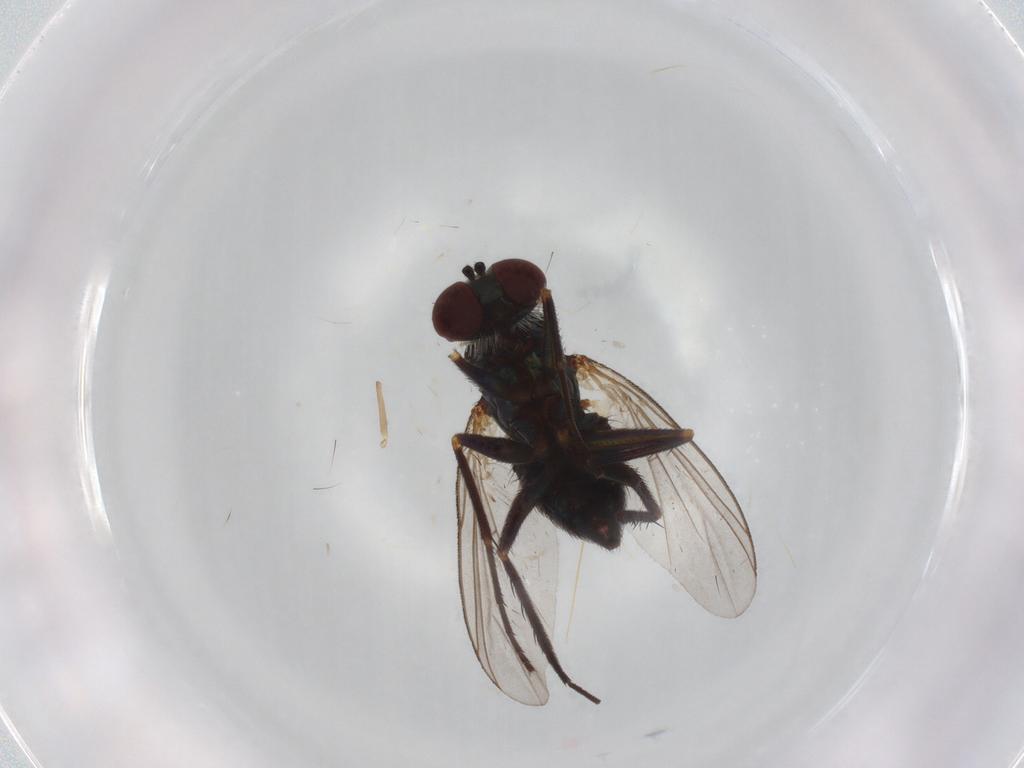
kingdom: Animalia
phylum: Arthropoda
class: Insecta
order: Diptera
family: Dolichopodidae
